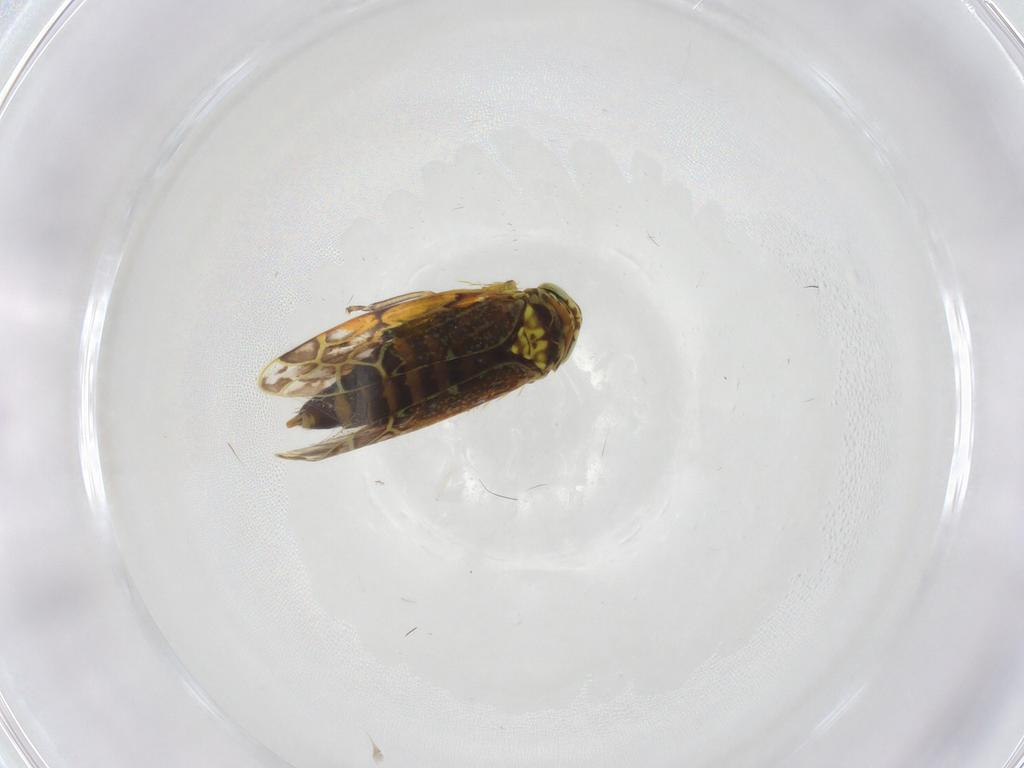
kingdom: Animalia
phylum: Arthropoda
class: Insecta
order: Hemiptera
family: Cicadellidae
